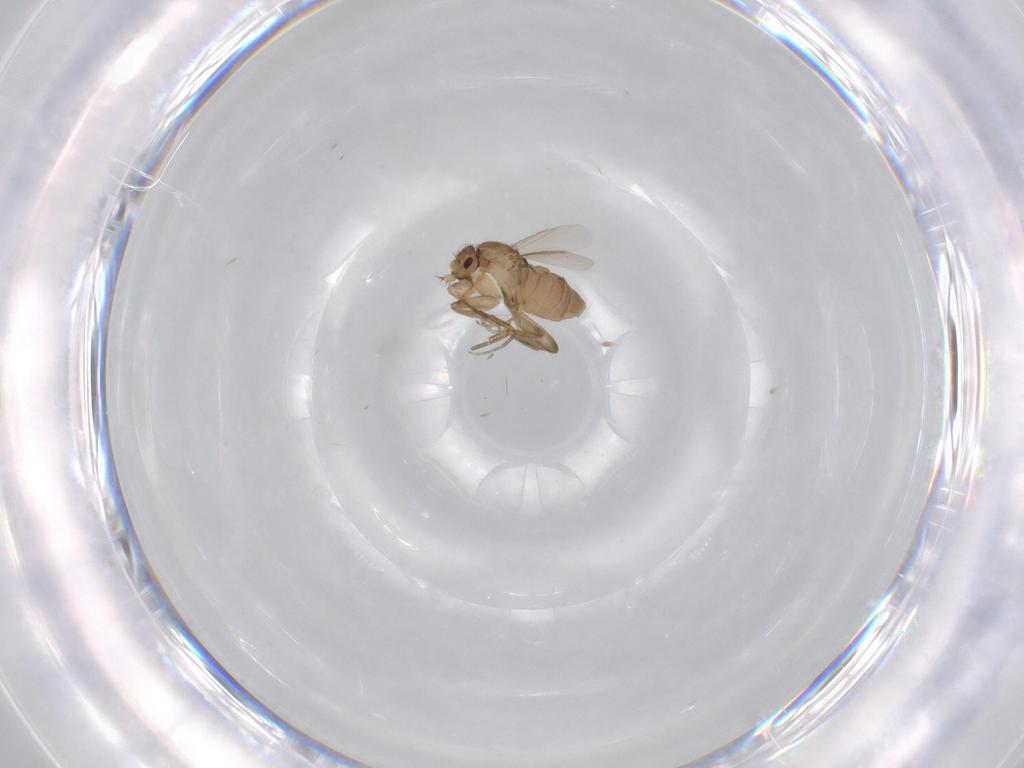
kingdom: Animalia
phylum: Arthropoda
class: Insecta
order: Diptera
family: Phoridae
